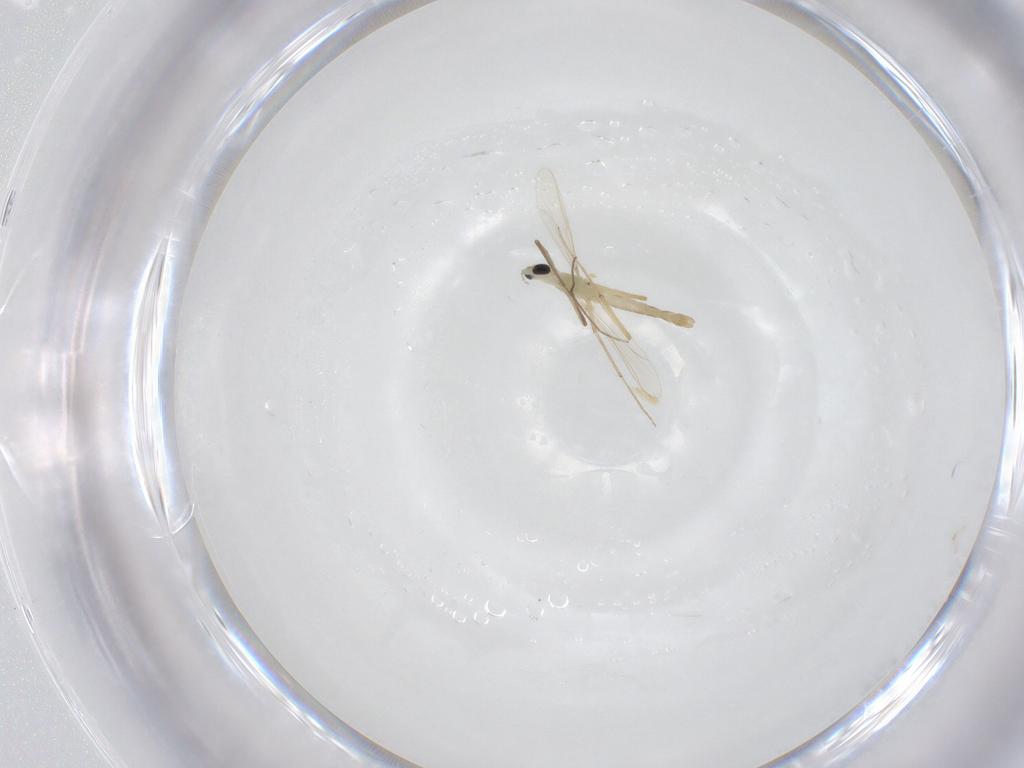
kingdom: Animalia
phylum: Arthropoda
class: Insecta
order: Diptera
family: Chironomidae
